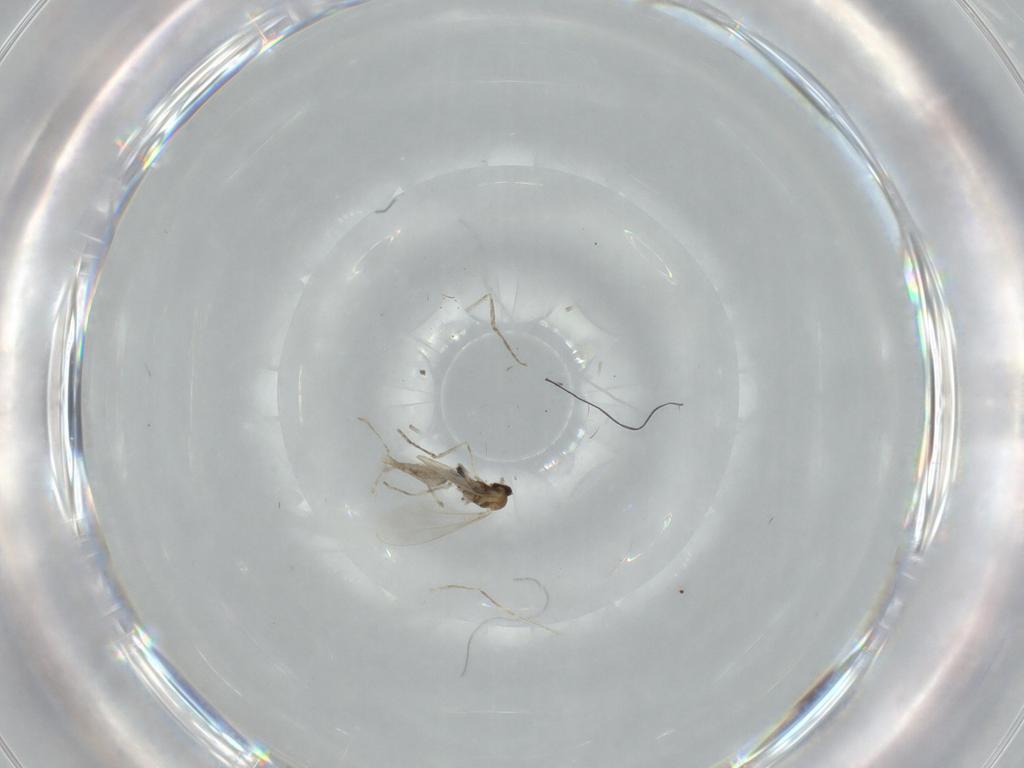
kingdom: Animalia
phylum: Arthropoda
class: Insecta
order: Diptera
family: Cecidomyiidae
